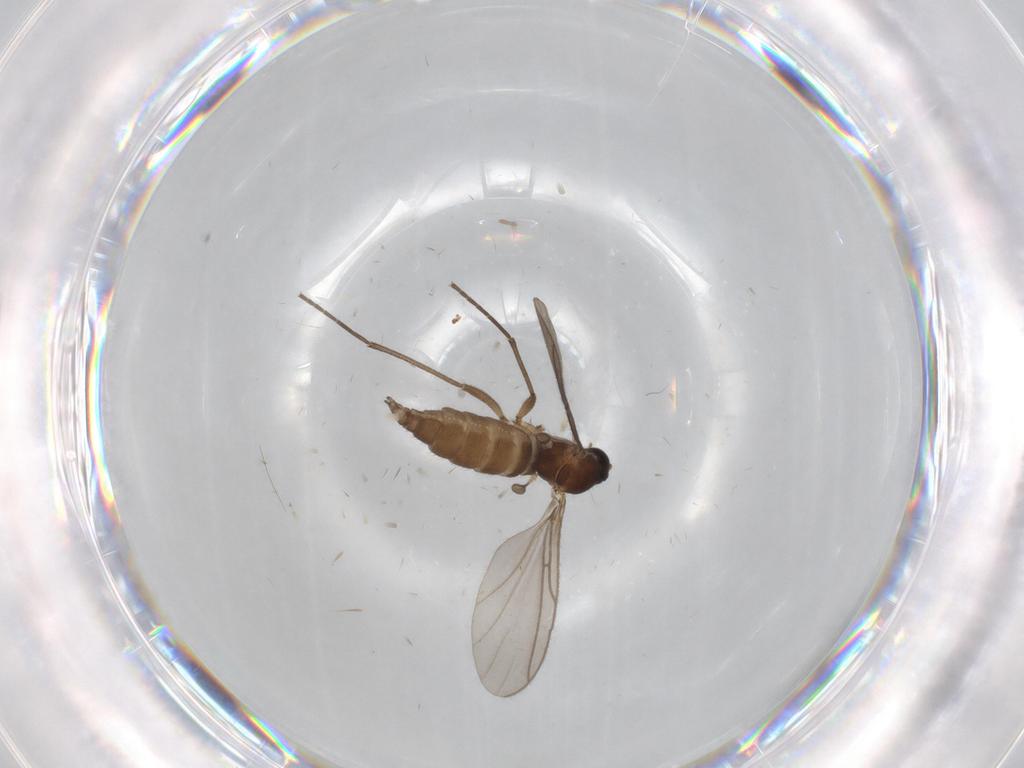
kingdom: Animalia
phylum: Arthropoda
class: Insecta
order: Diptera
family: Sciaridae
